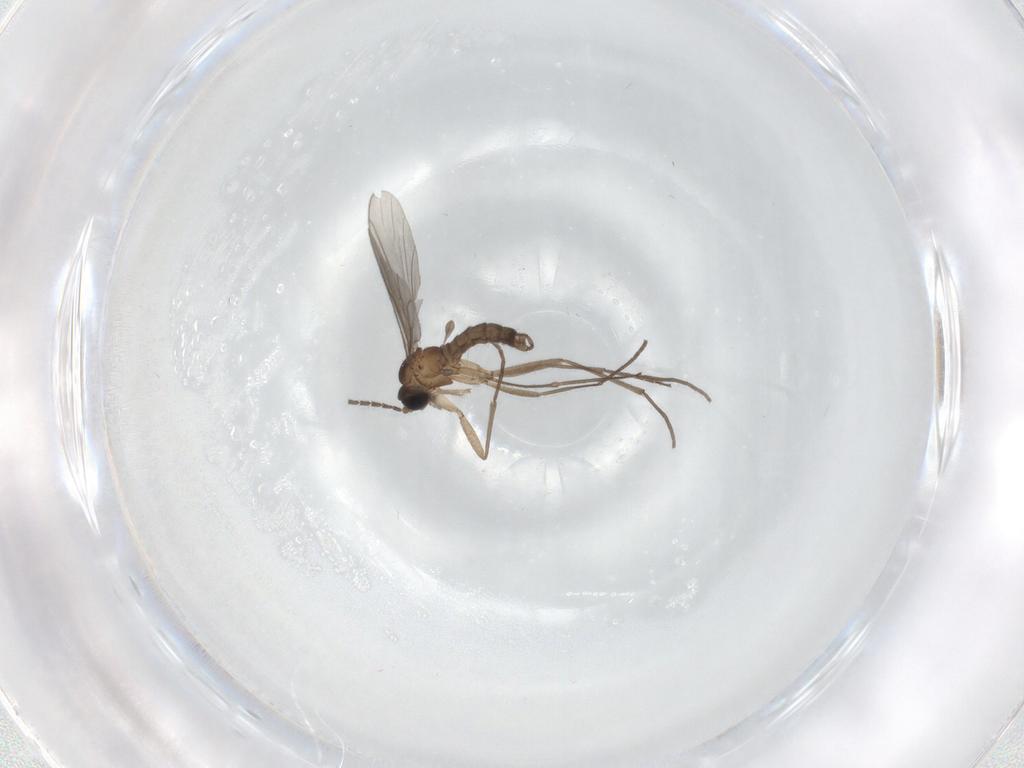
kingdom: Animalia
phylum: Arthropoda
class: Insecta
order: Diptera
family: Sciaridae
